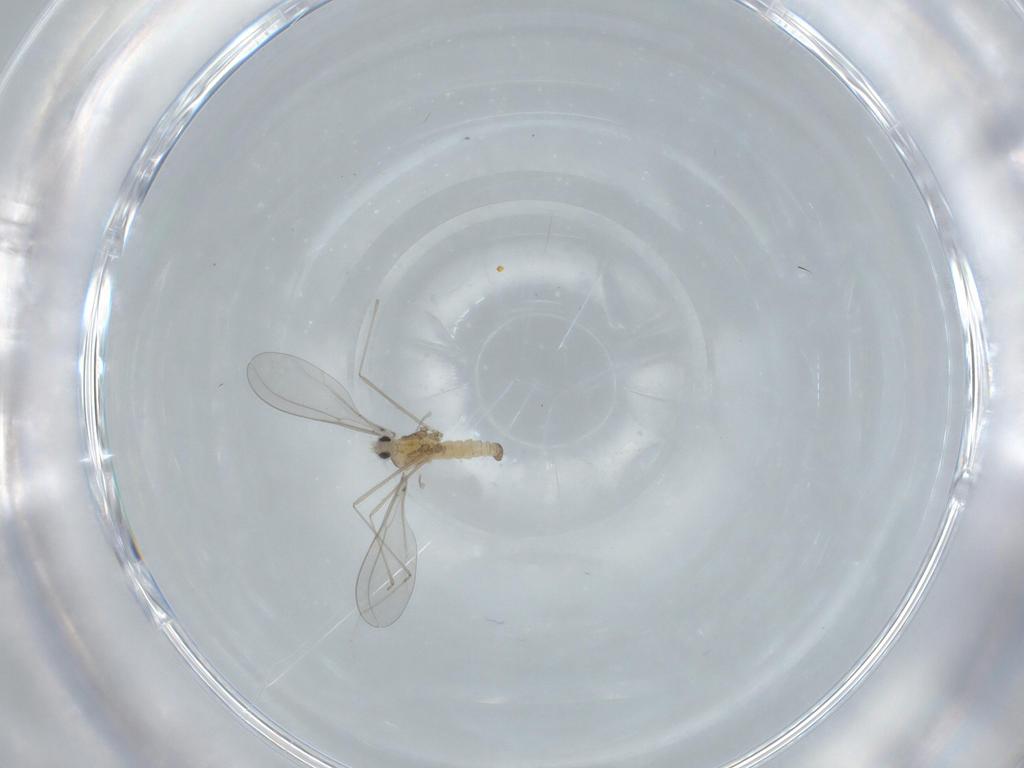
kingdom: Animalia
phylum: Arthropoda
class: Insecta
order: Diptera
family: Cecidomyiidae
